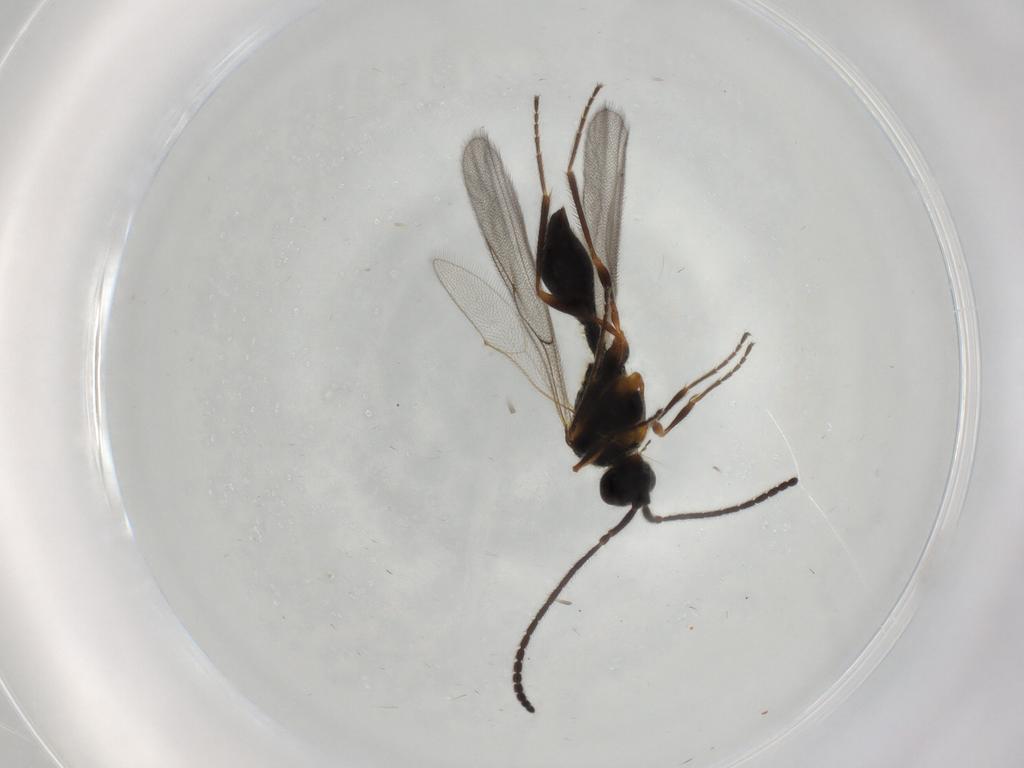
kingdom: Animalia
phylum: Arthropoda
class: Insecta
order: Hymenoptera
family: Diapriidae
